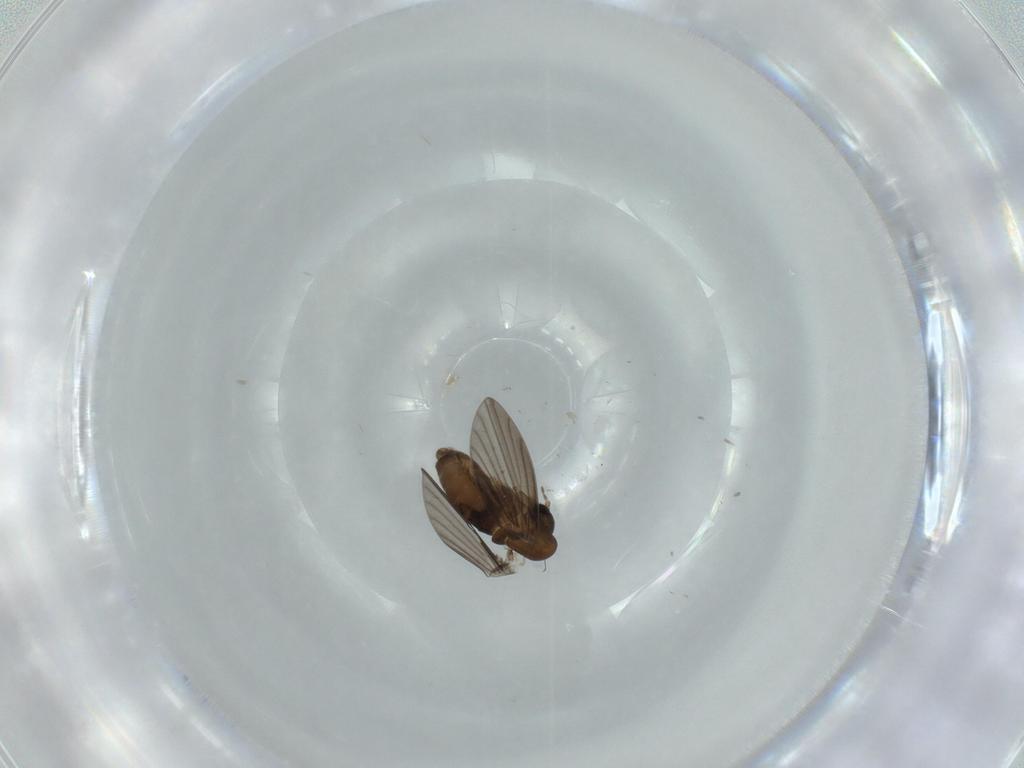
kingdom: Animalia
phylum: Arthropoda
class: Insecta
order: Diptera
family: Psychodidae
